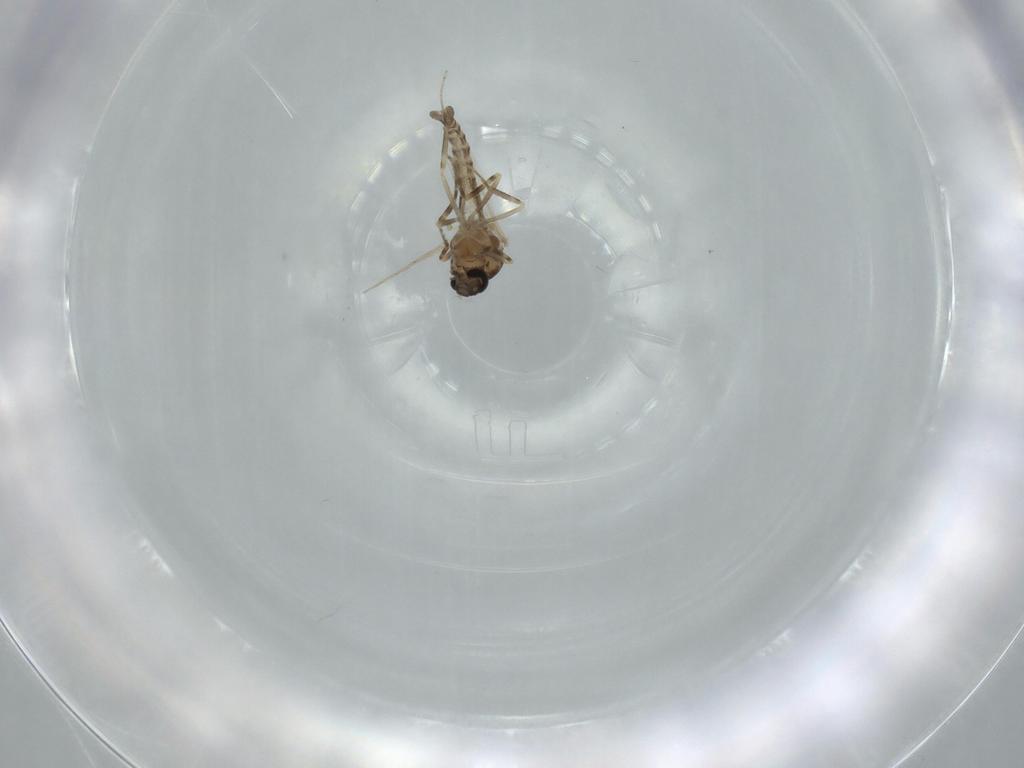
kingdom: Animalia
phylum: Arthropoda
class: Insecta
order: Diptera
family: Ceratopogonidae
